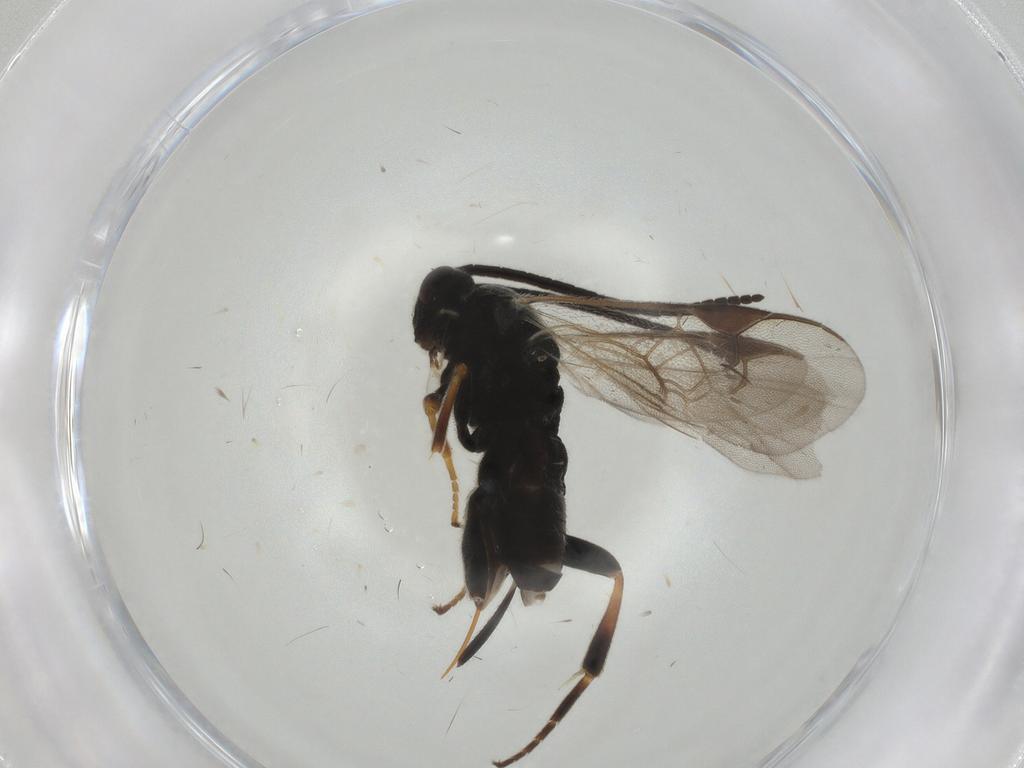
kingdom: Animalia
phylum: Arthropoda
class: Insecta
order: Hymenoptera
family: Braconidae
